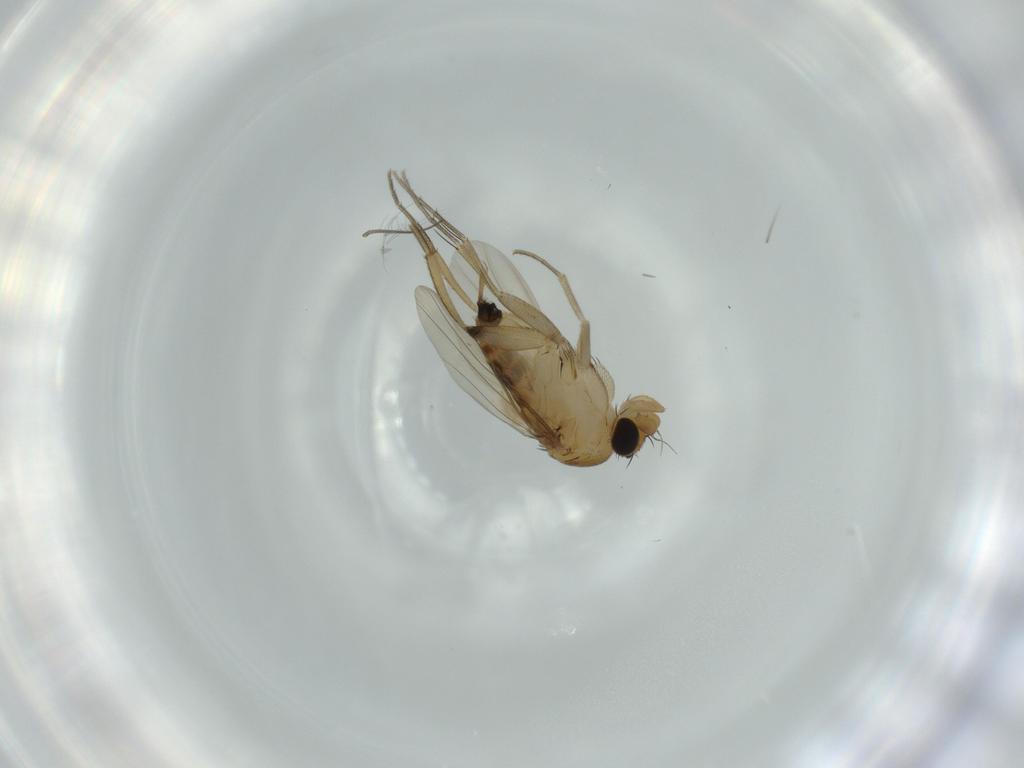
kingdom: Animalia
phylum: Arthropoda
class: Insecta
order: Diptera
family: Phoridae
